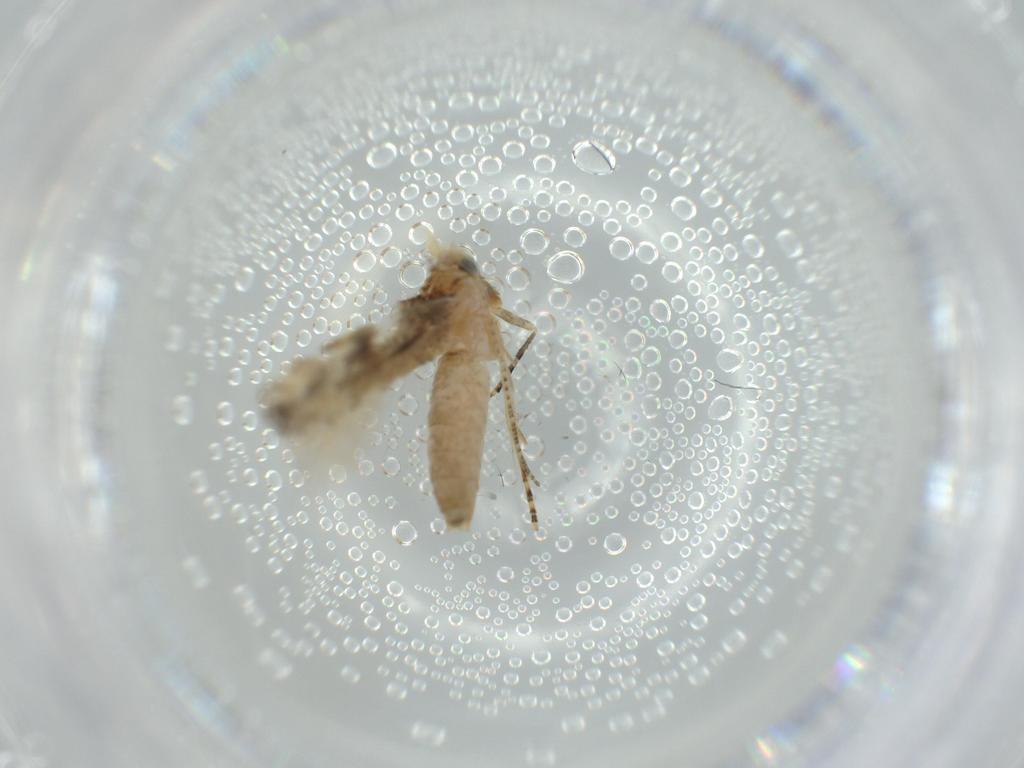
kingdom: Animalia
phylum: Arthropoda
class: Insecta
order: Lepidoptera
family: Bucculatricidae
